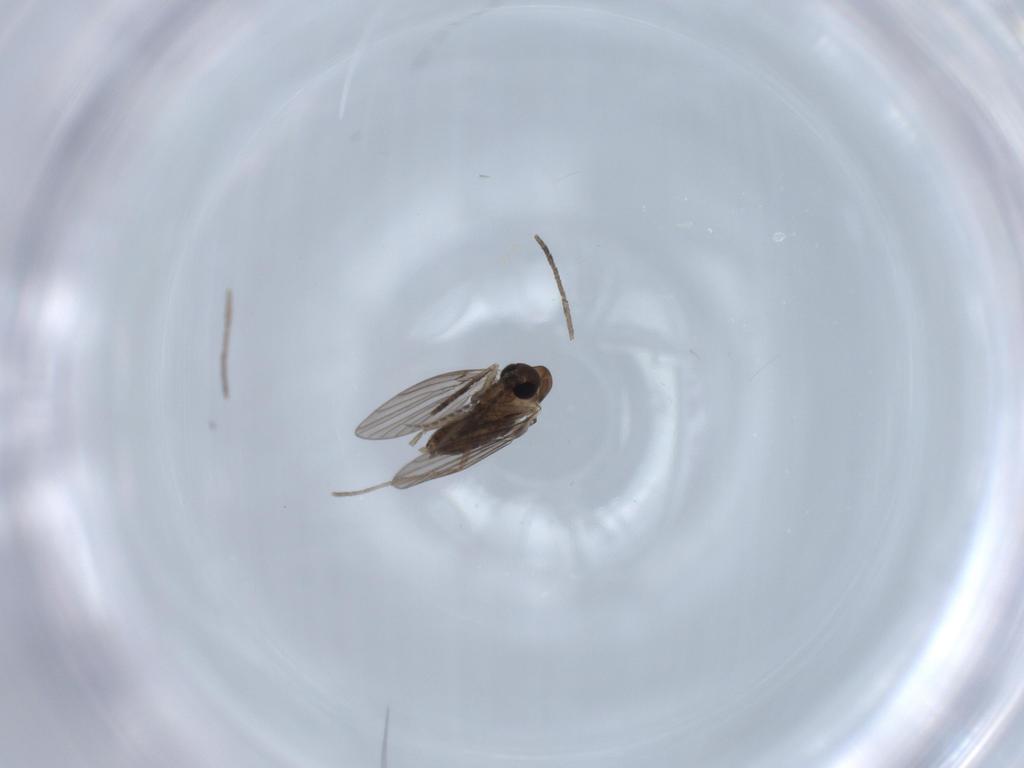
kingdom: Animalia
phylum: Arthropoda
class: Insecta
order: Diptera
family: Psychodidae
